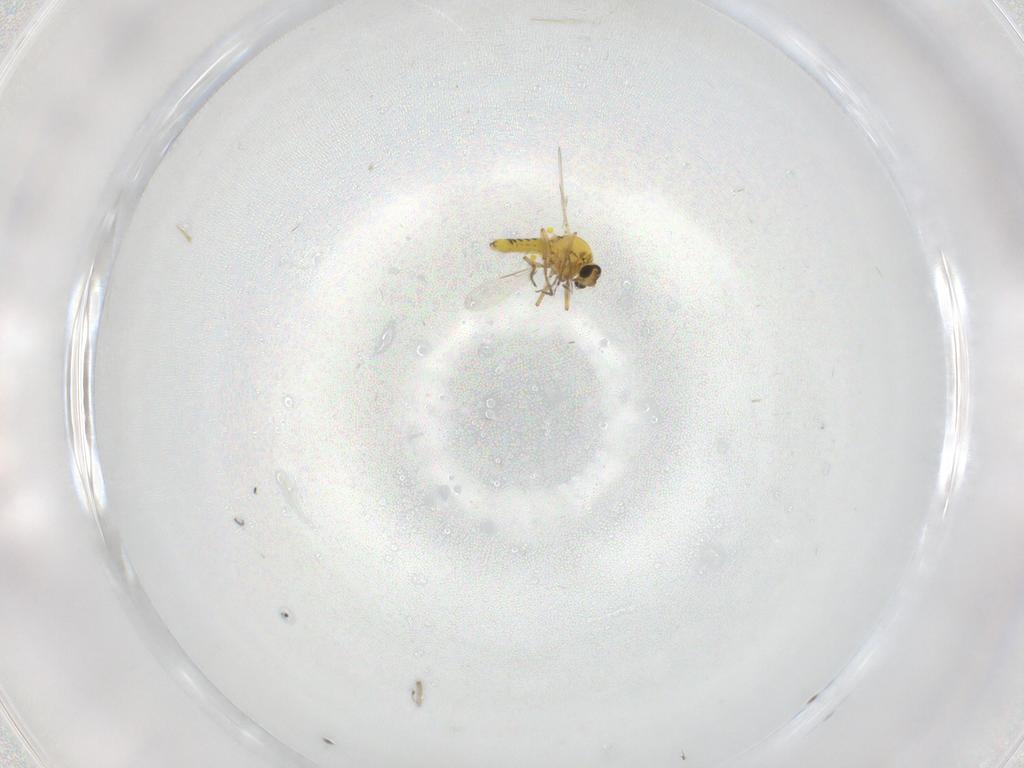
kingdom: Animalia
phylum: Arthropoda
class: Insecta
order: Diptera
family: Ceratopogonidae
